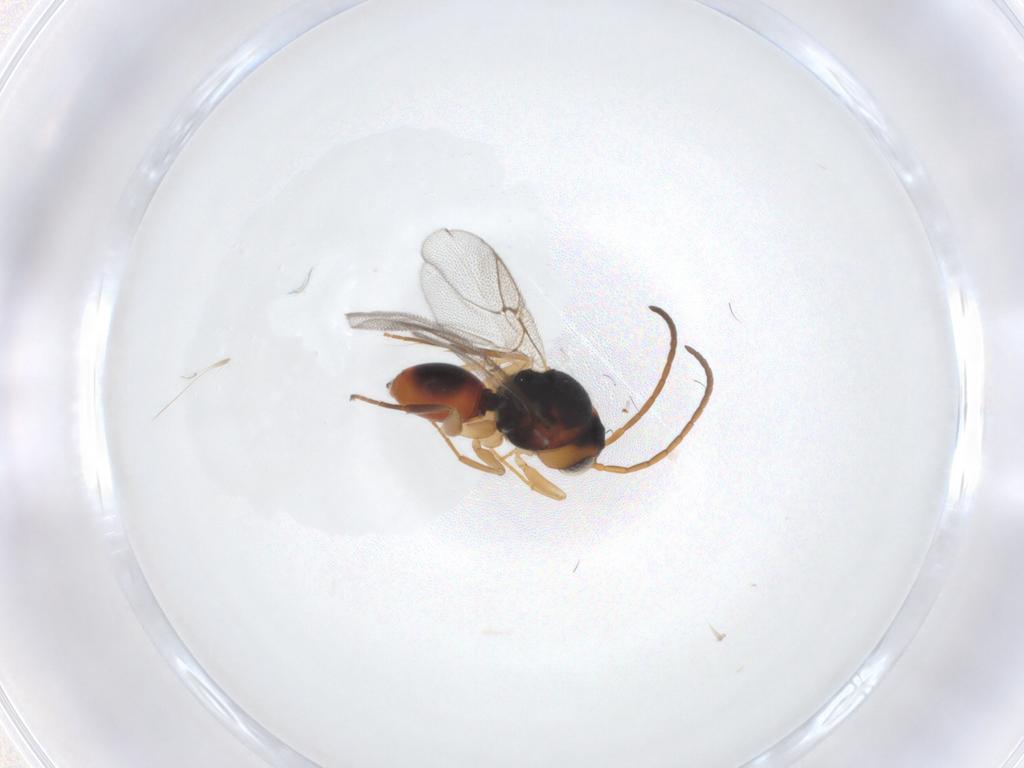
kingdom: Animalia
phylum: Arthropoda
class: Insecta
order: Hymenoptera
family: Cynipidae
